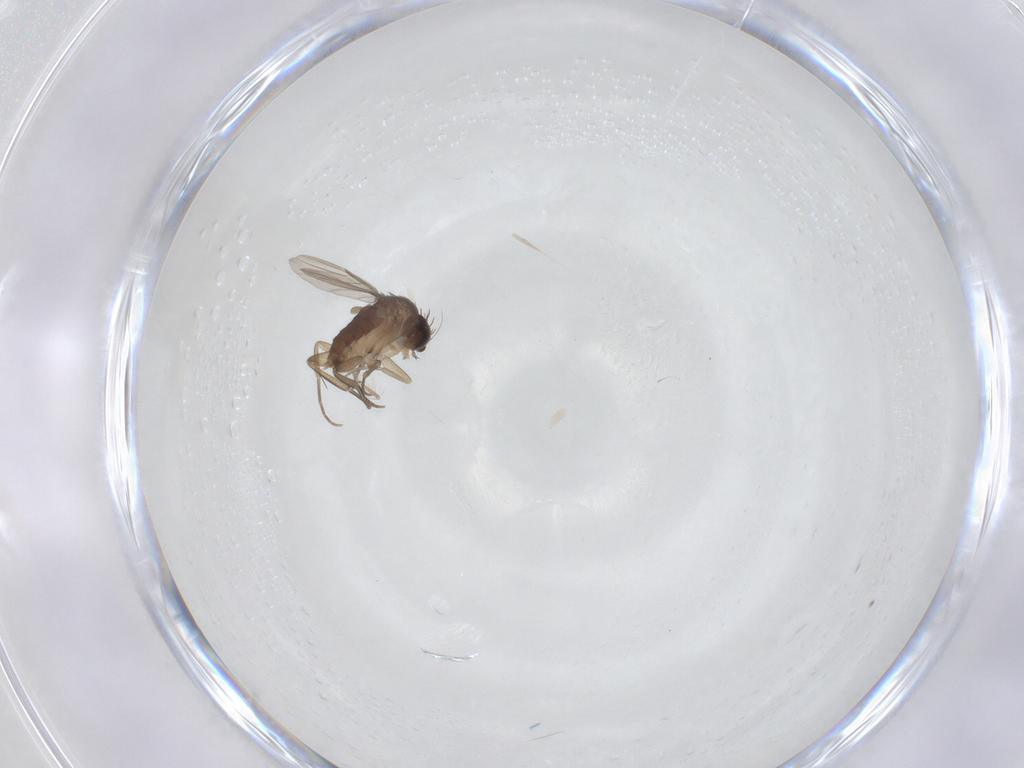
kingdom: Animalia
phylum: Arthropoda
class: Insecta
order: Diptera
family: Phoridae
